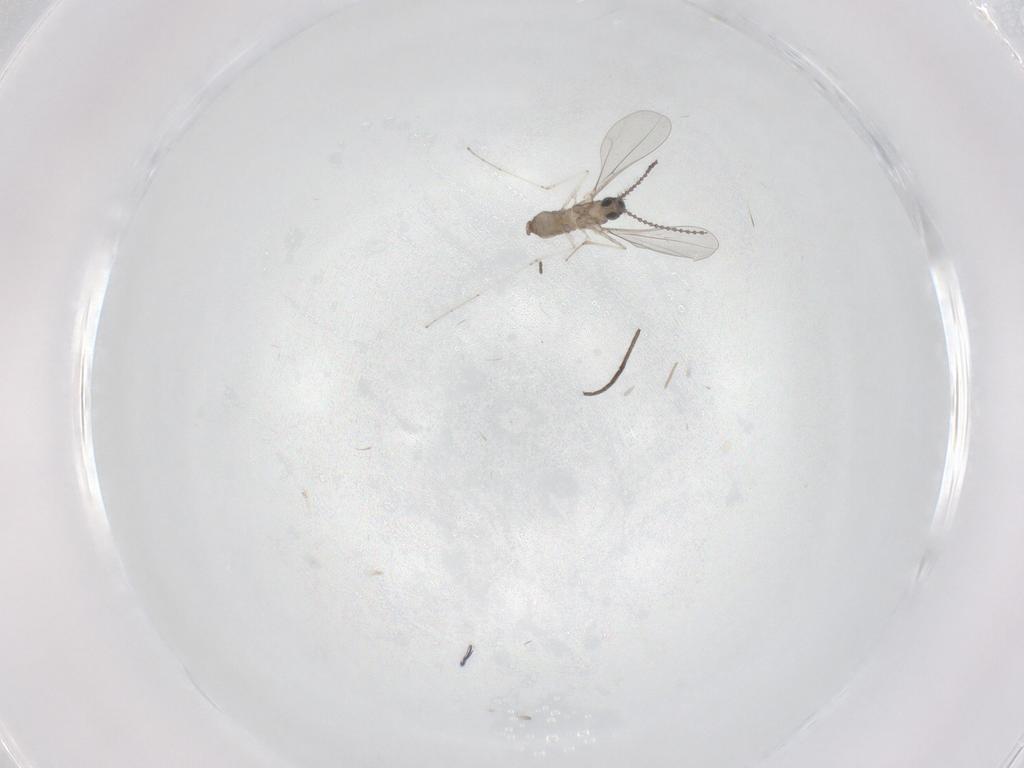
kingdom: Animalia
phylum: Arthropoda
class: Insecta
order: Diptera
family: Cecidomyiidae
